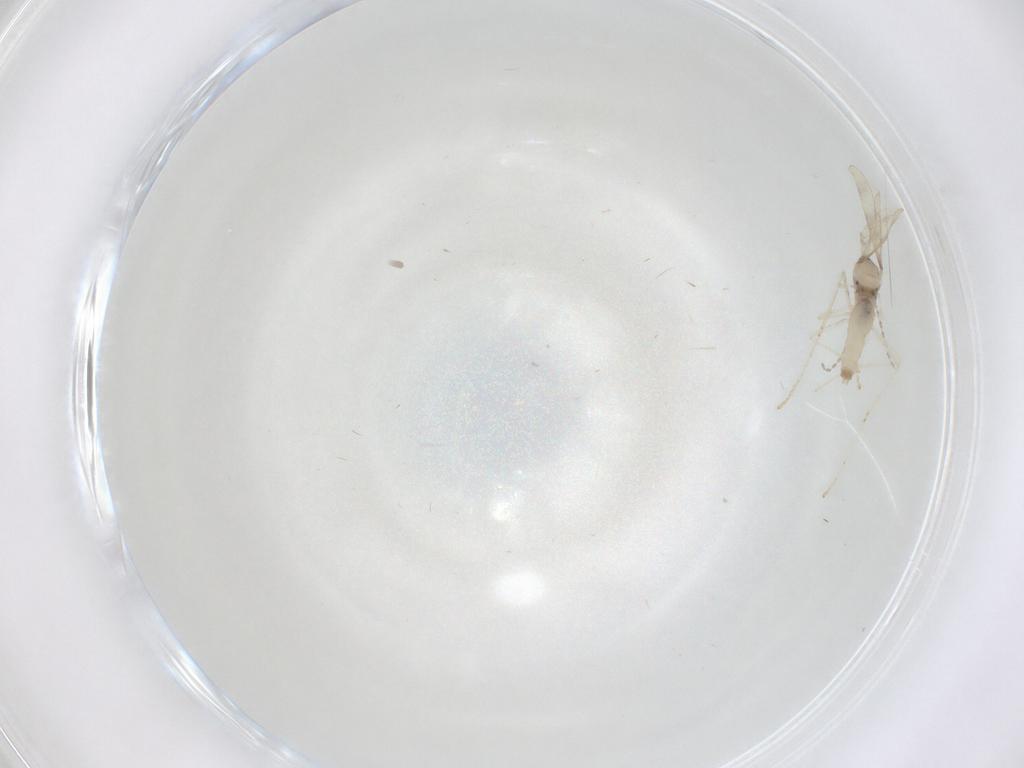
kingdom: Animalia
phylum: Arthropoda
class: Insecta
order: Diptera
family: Cecidomyiidae
